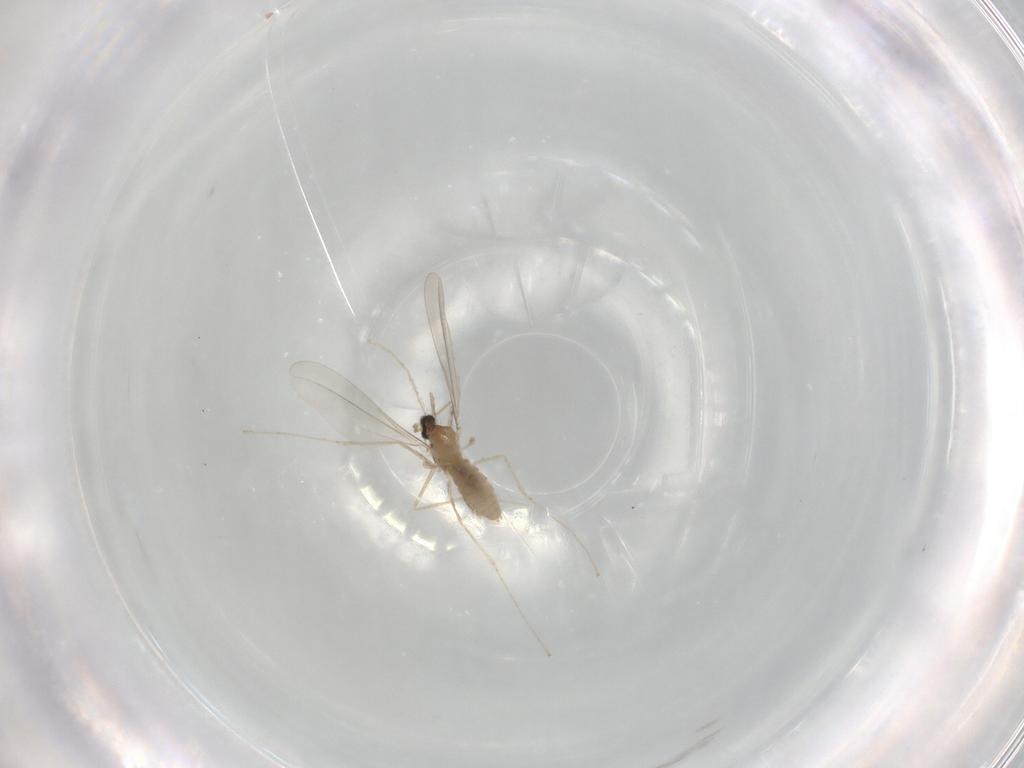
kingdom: Animalia
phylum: Arthropoda
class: Insecta
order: Diptera
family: Cecidomyiidae
